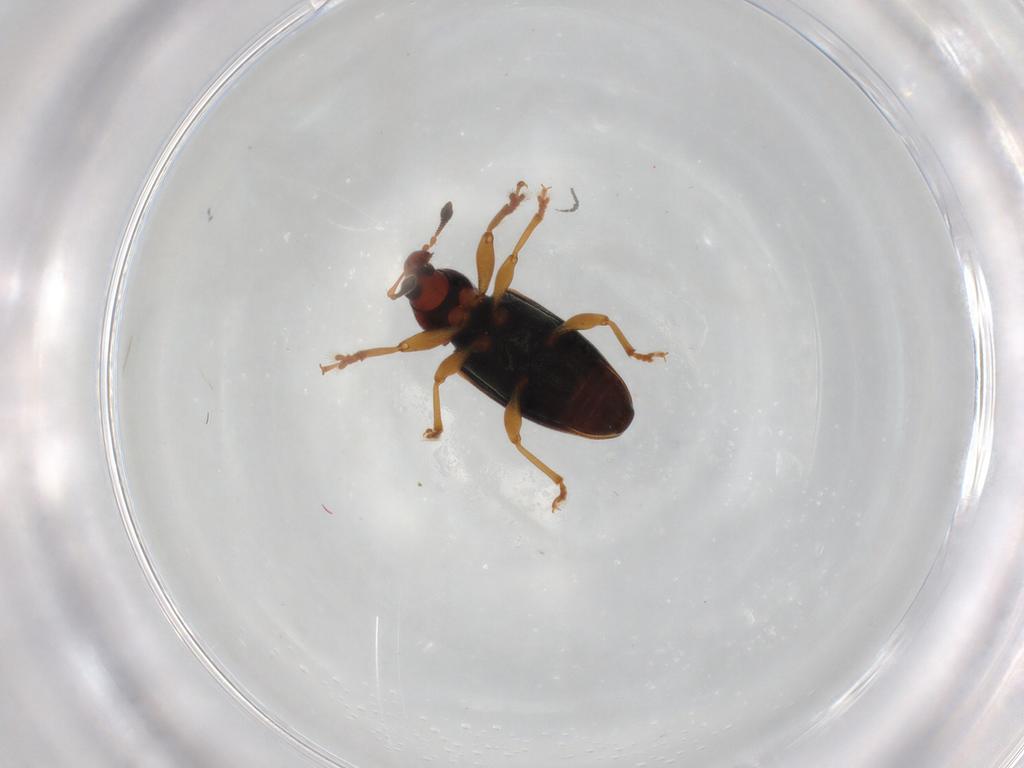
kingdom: Animalia
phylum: Arthropoda
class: Insecta
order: Coleoptera
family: Curculionidae
